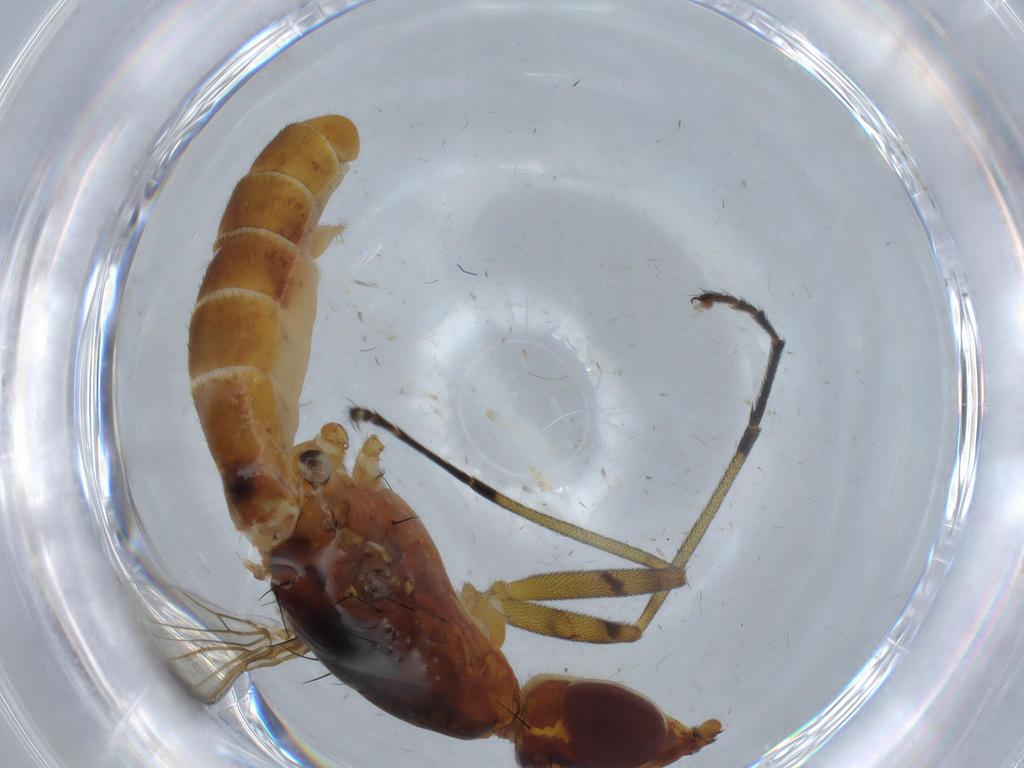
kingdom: Animalia
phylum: Arthropoda
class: Insecta
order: Diptera
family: Micropezidae
